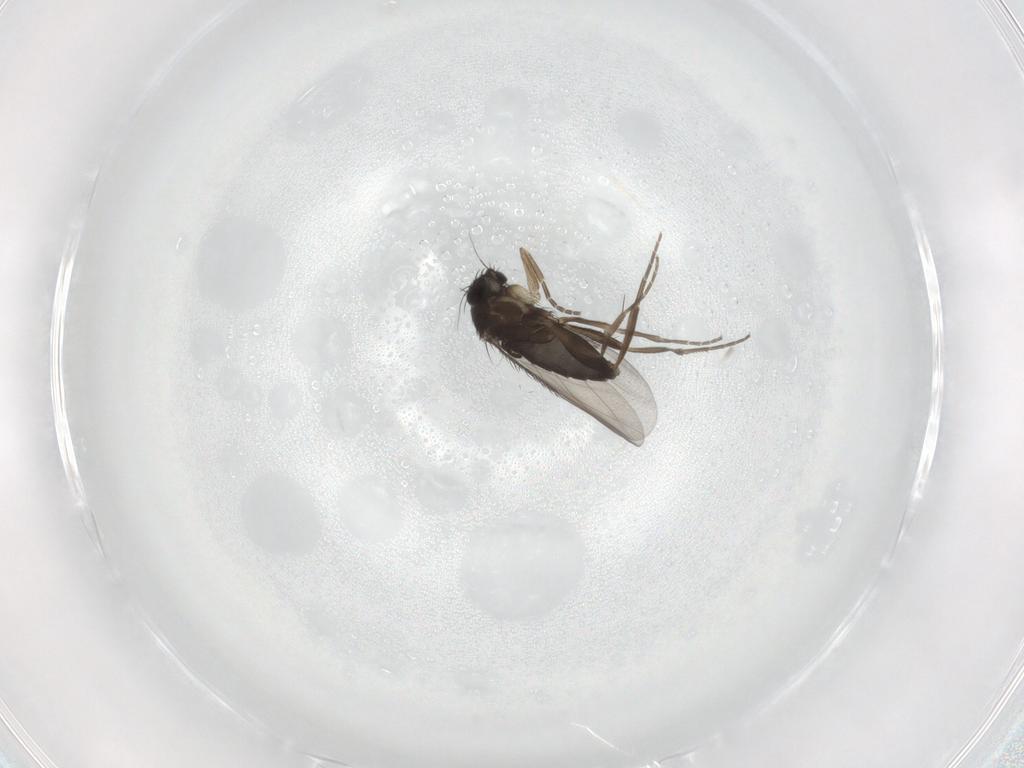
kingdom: Animalia
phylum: Arthropoda
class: Insecta
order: Diptera
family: Phoridae
